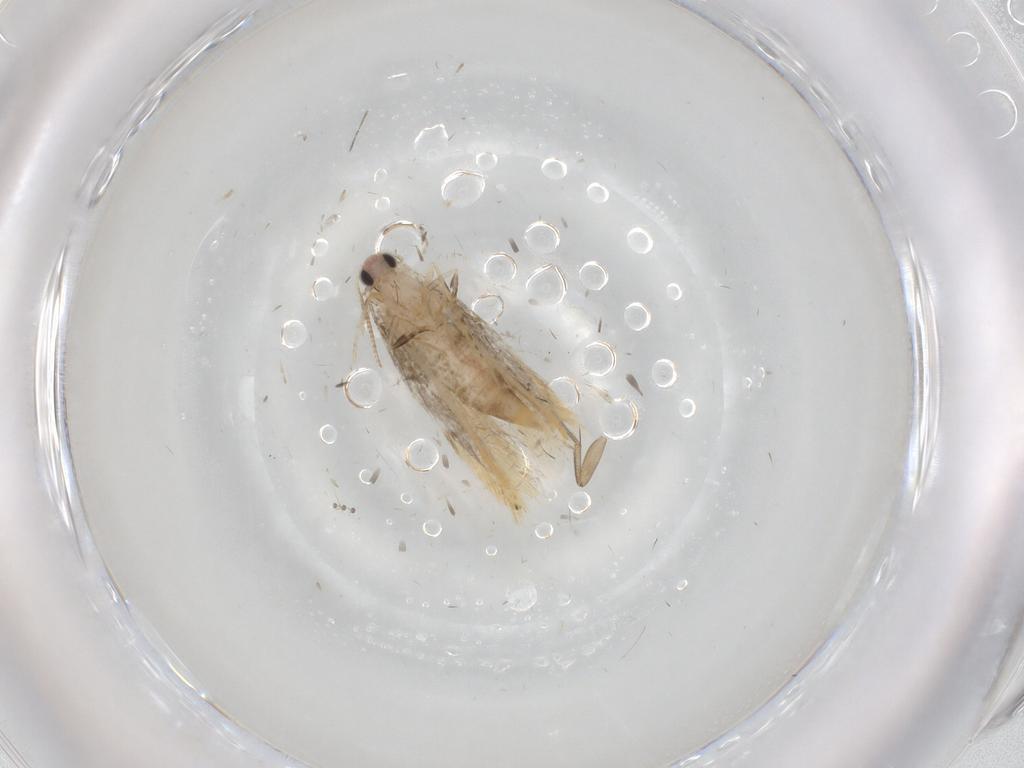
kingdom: Animalia
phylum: Arthropoda
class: Insecta
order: Lepidoptera
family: Tineidae
